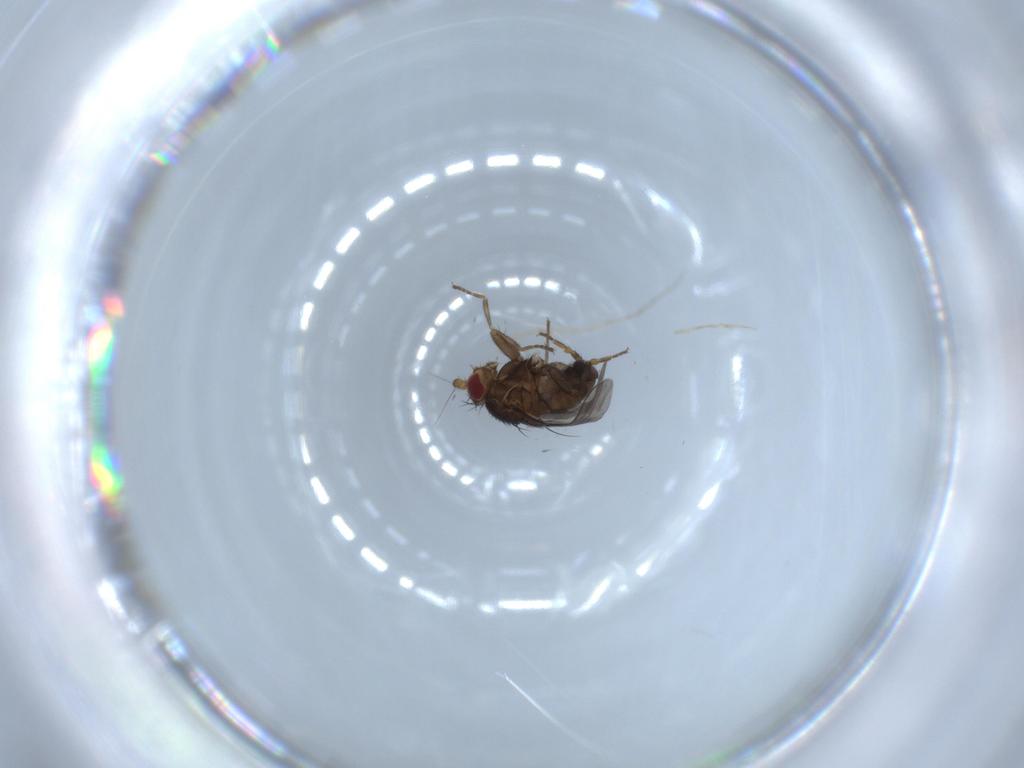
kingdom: Animalia
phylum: Arthropoda
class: Insecta
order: Diptera
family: Sphaeroceridae
